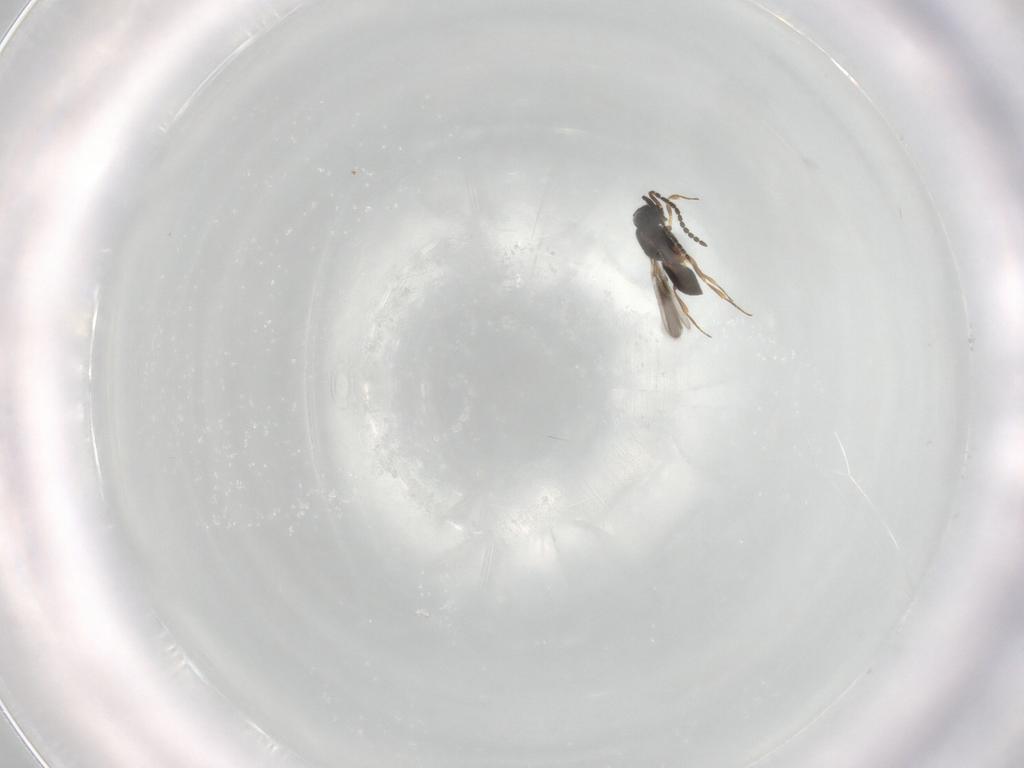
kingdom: Animalia
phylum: Arthropoda
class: Insecta
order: Hymenoptera
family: Scelionidae
